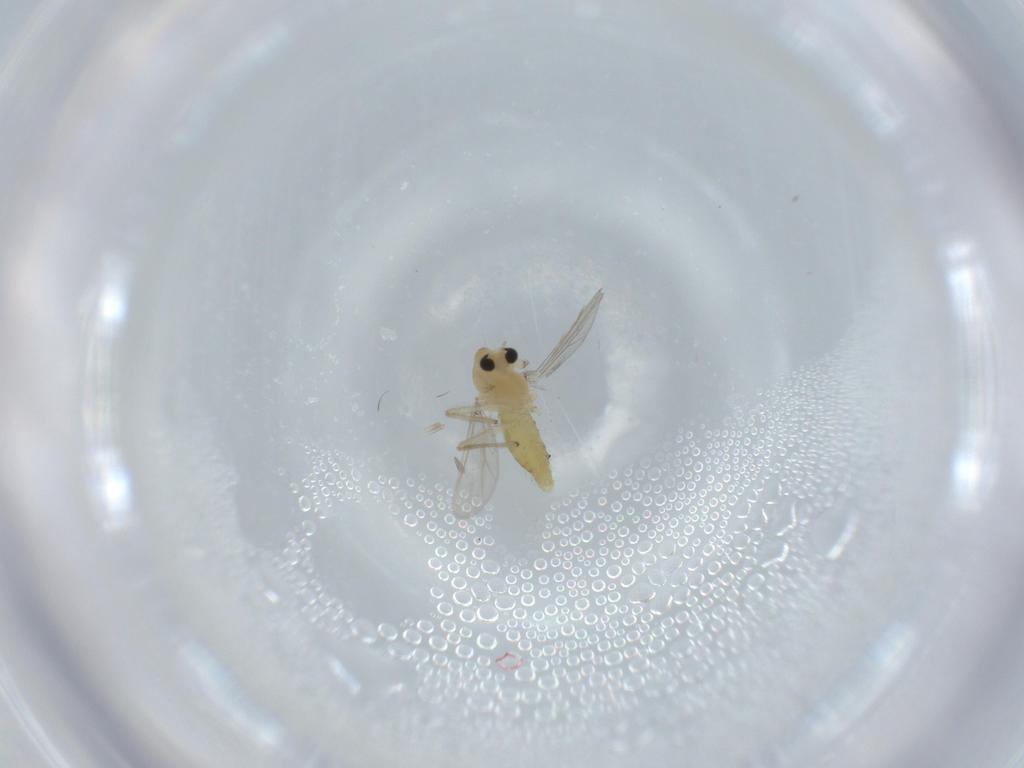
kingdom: Animalia
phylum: Arthropoda
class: Insecta
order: Diptera
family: Chironomidae
